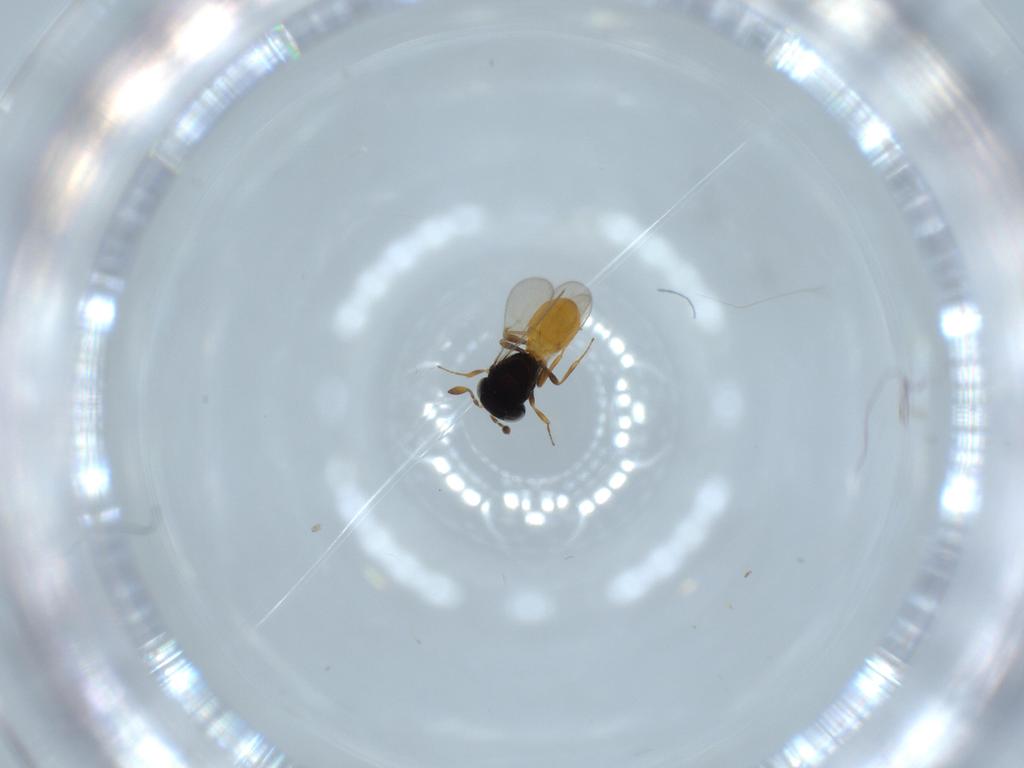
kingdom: Animalia
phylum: Arthropoda
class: Insecta
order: Hymenoptera
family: Scelionidae
